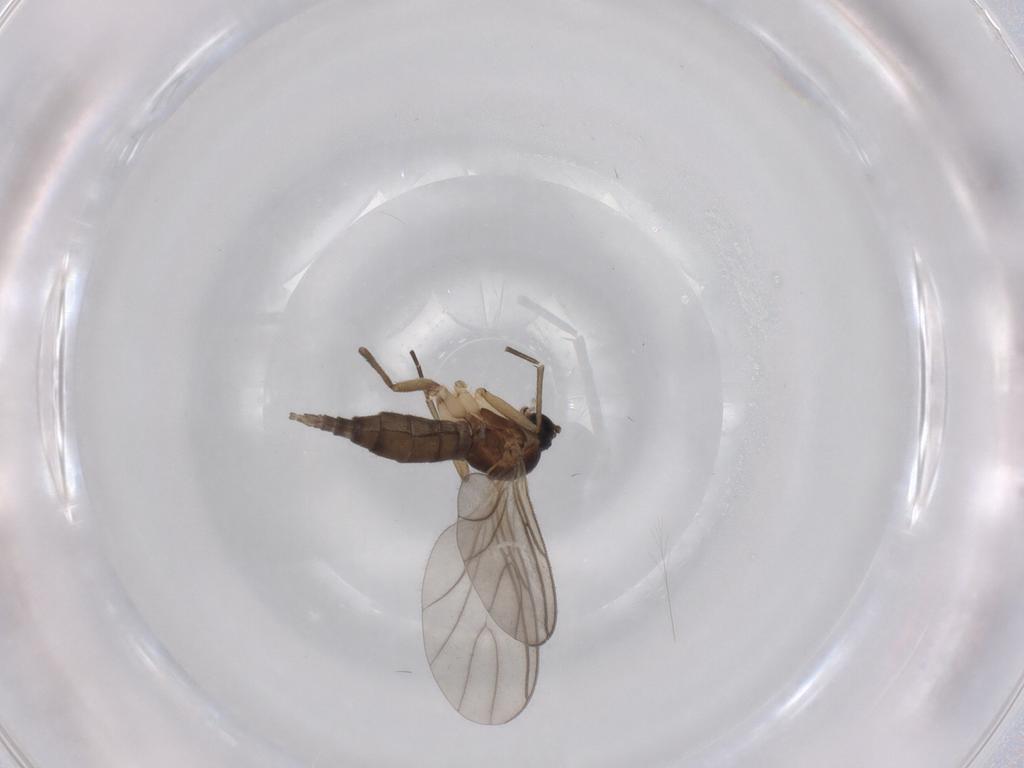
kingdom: Animalia
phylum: Arthropoda
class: Insecta
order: Diptera
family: Sciaridae
